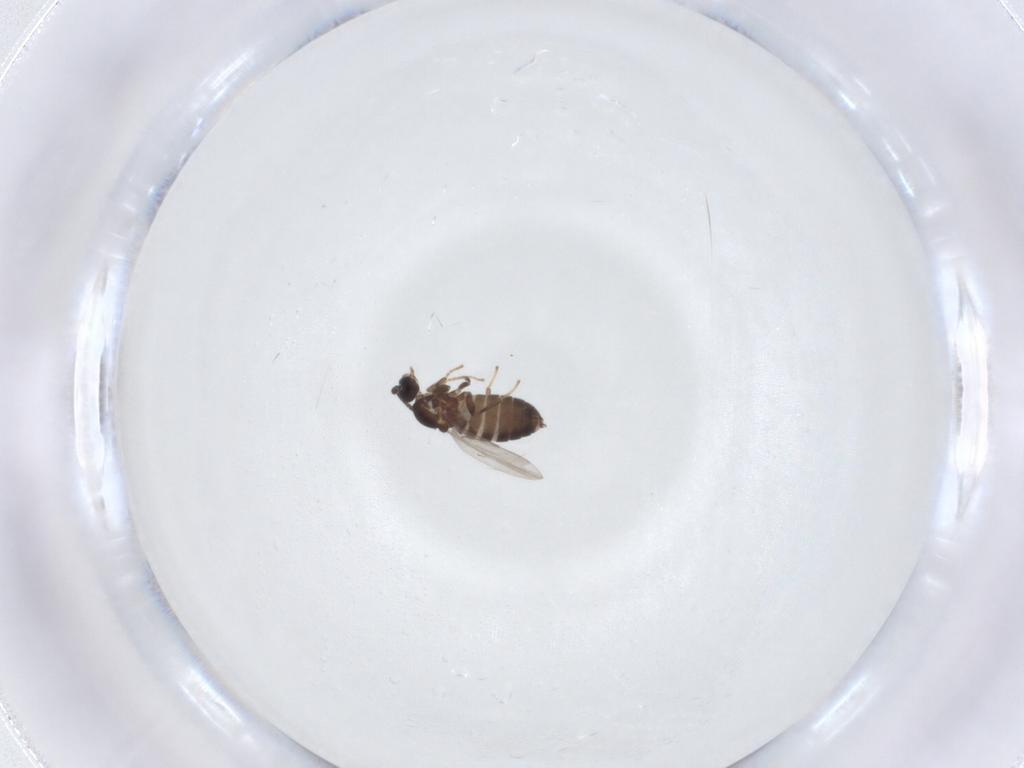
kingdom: Animalia
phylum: Arthropoda
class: Insecta
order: Diptera
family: Scatopsidae
